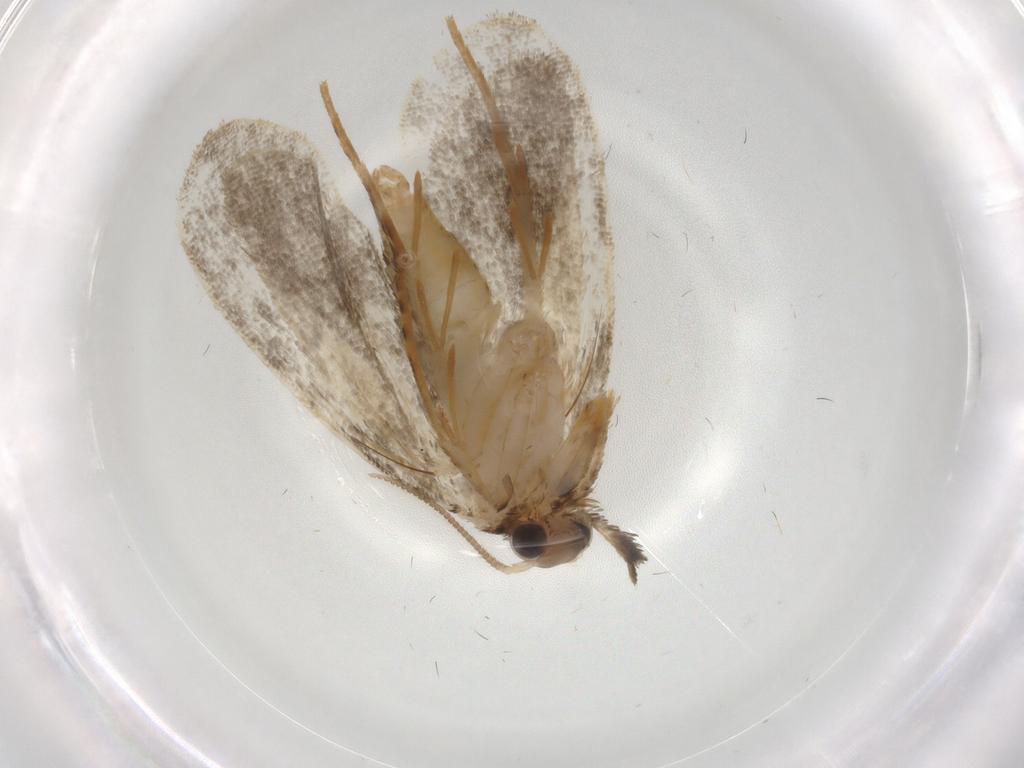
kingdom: Animalia
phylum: Arthropoda
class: Insecta
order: Lepidoptera
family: Psychidae
